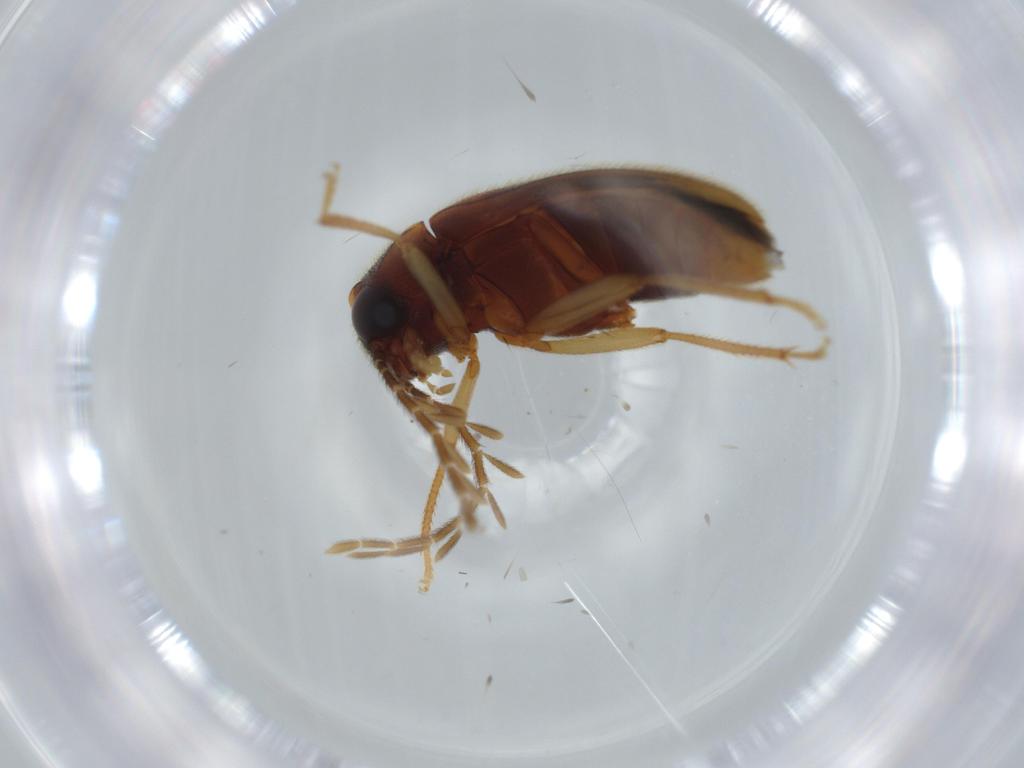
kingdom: Animalia
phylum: Arthropoda
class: Insecta
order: Coleoptera
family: Ptilodactylidae
